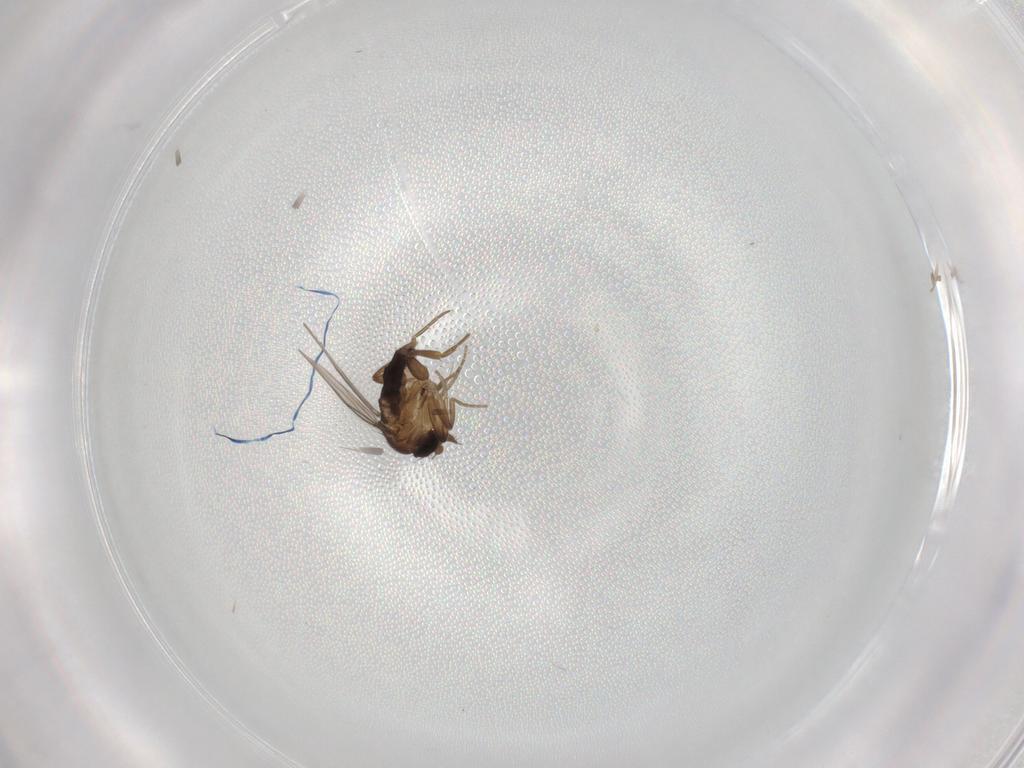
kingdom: Animalia
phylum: Arthropoda
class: Insecta
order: Diptera
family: Phoridae
